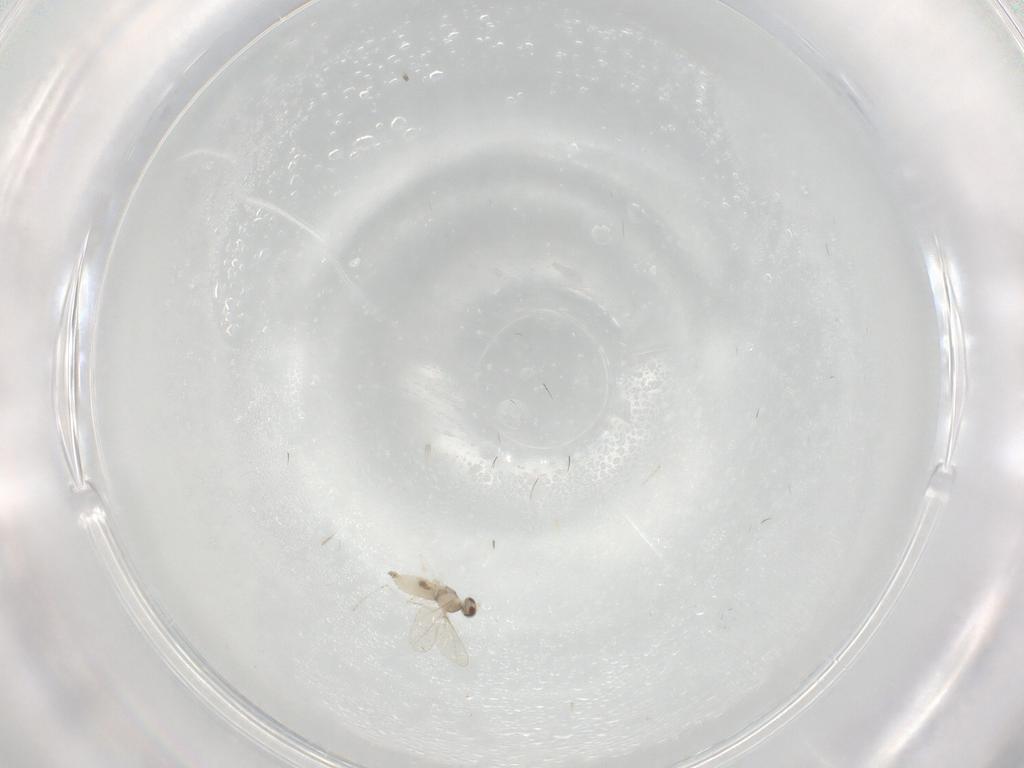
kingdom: Animalia
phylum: Arthropoda
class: Insecta
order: Diptera
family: Cecidomyiidae
